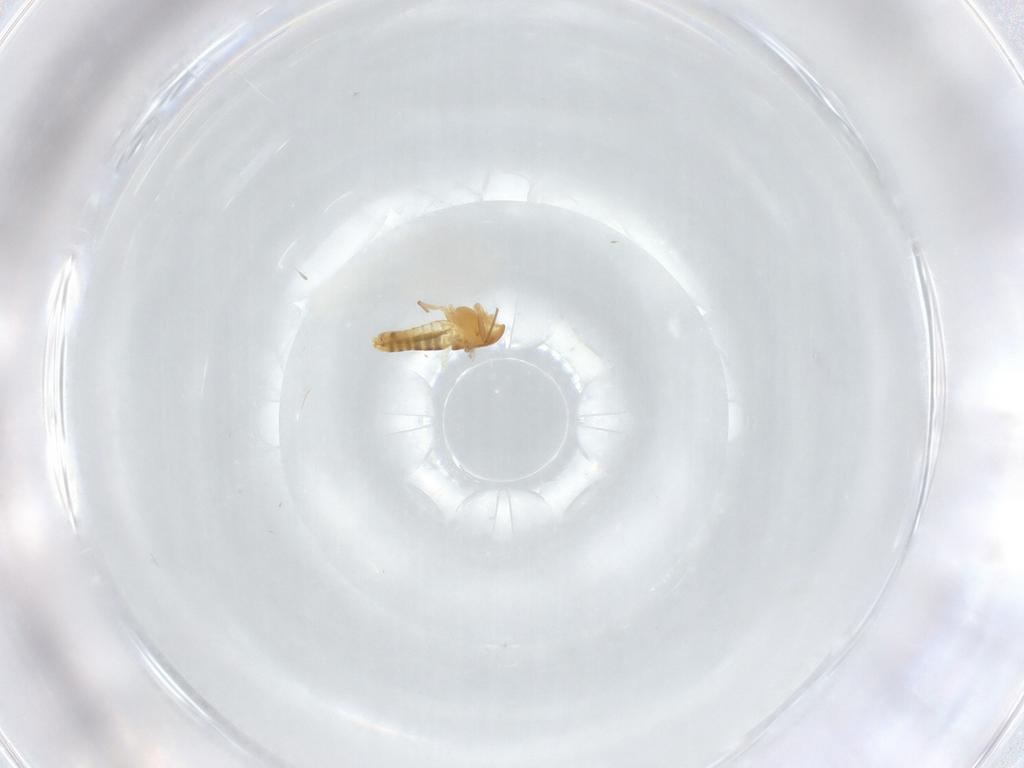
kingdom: Animalia
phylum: Arthropoda
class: Insecta
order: Diptera
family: Chironomidae
